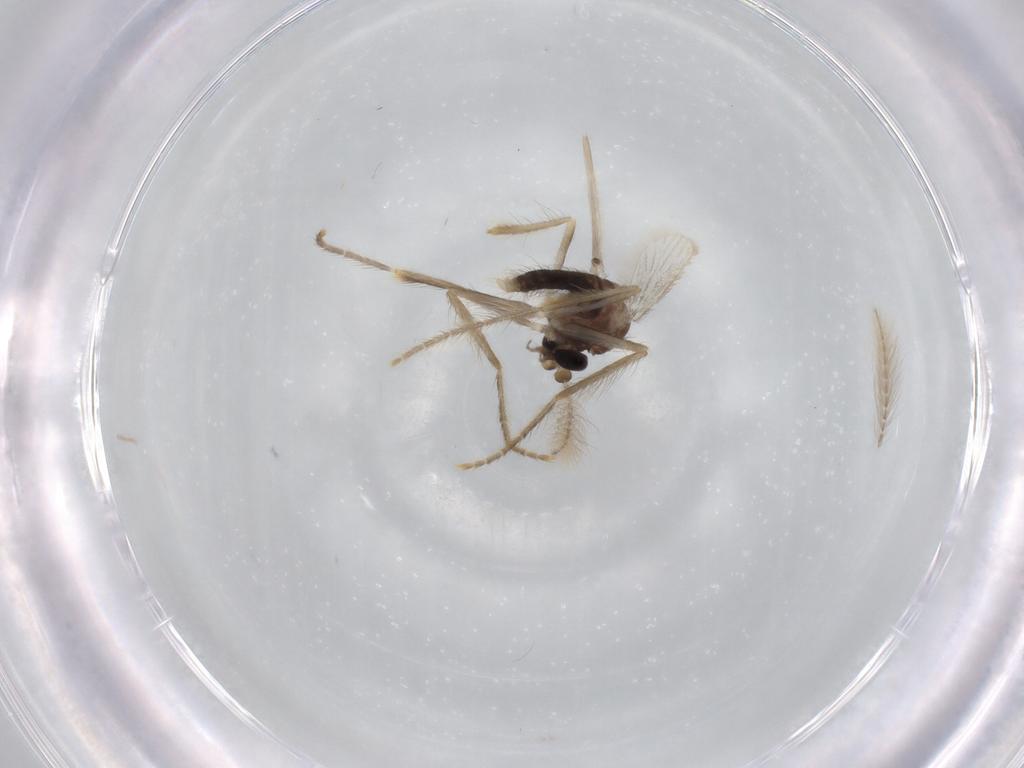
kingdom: Animalia
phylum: Arthropoda
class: Insecta
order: Diptera
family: Corethrellidae
